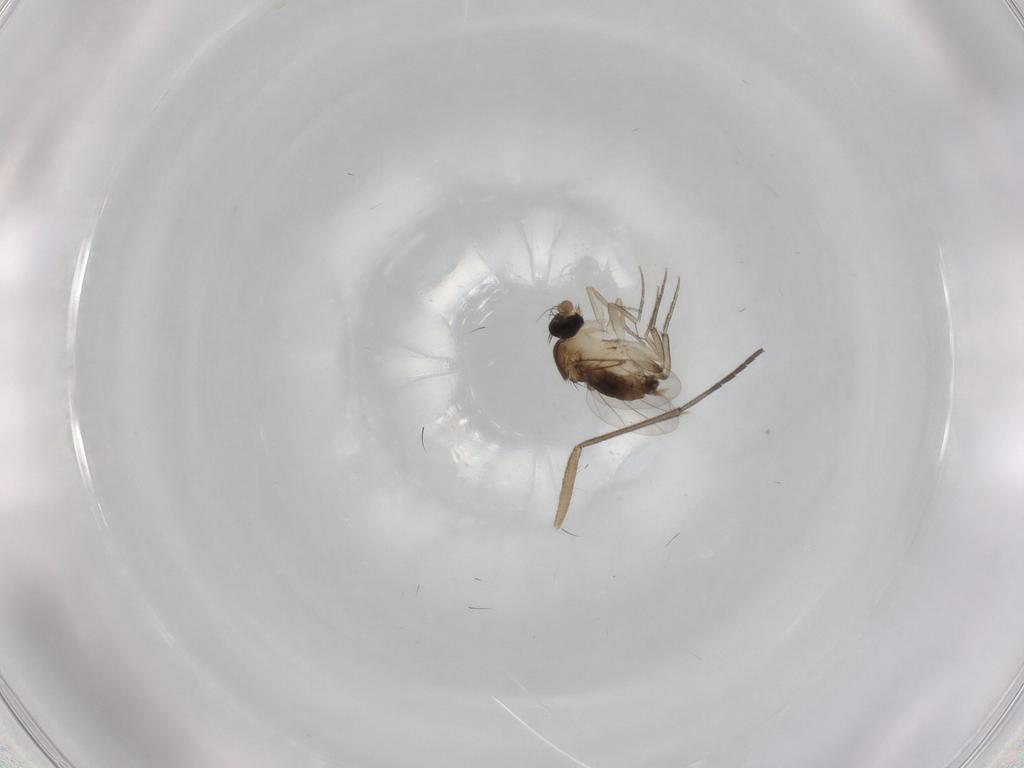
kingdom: Animalia
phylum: Arthropoda
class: Insecta
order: Diptera
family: Phoridae
